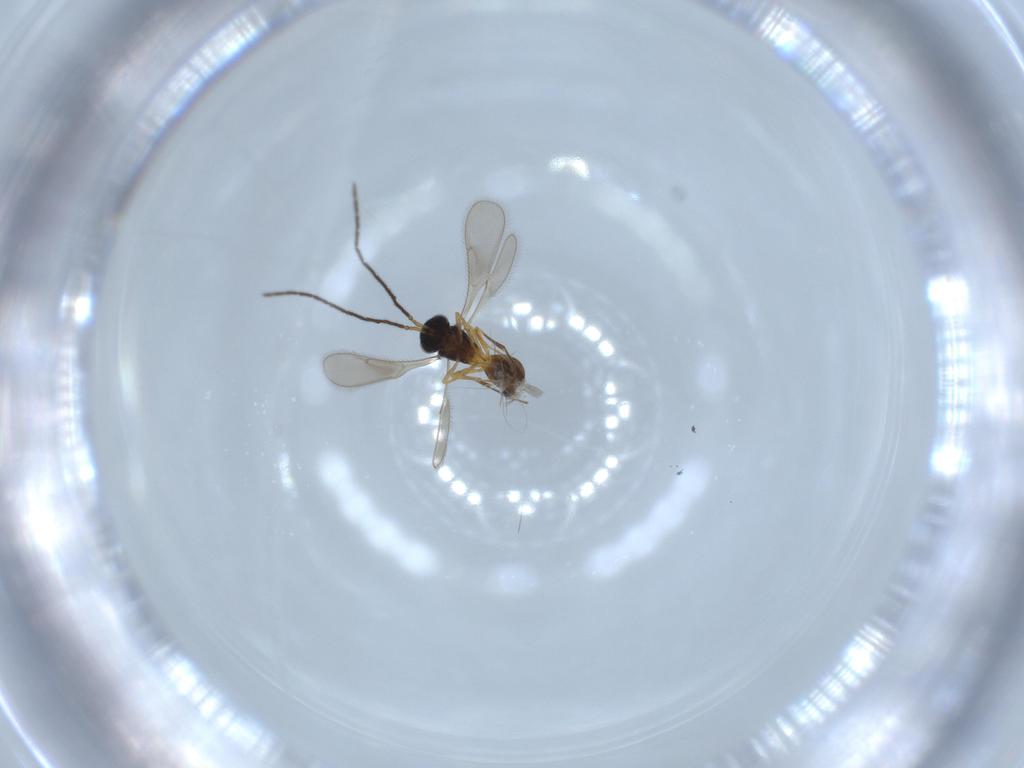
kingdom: Animalia
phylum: Arthropoda
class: Insecta
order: Hymenoptera
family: Scelionidae
